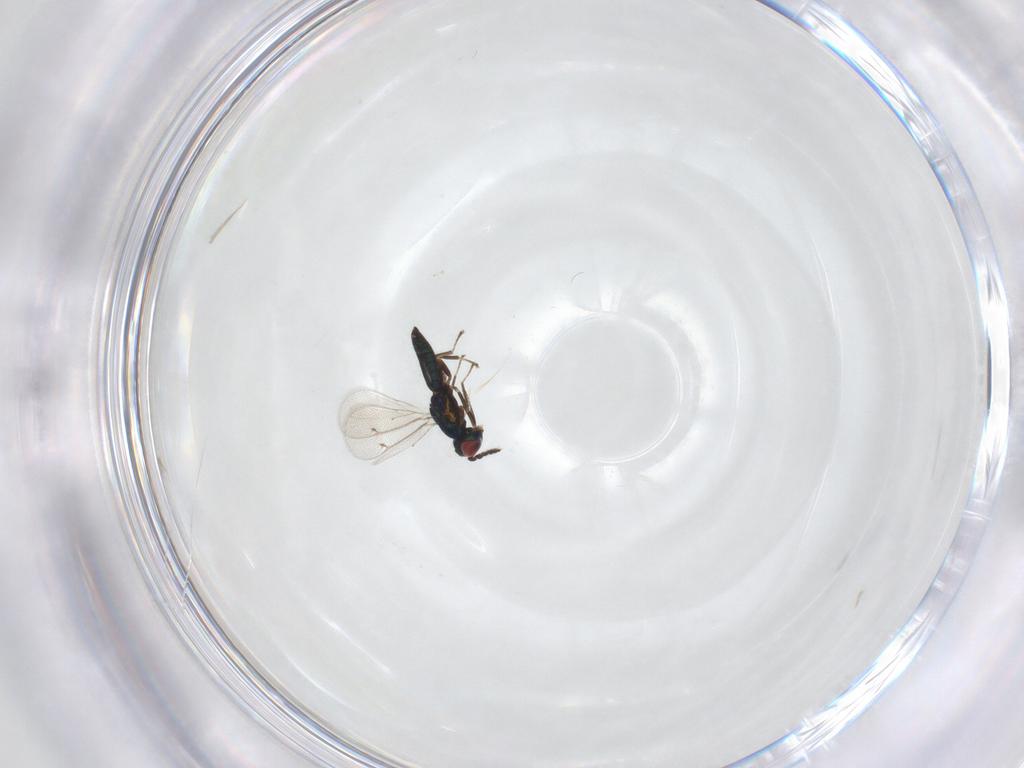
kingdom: Animalia
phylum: Arthropoda
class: Insecta
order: Hymenoptera
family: Eulophidae
